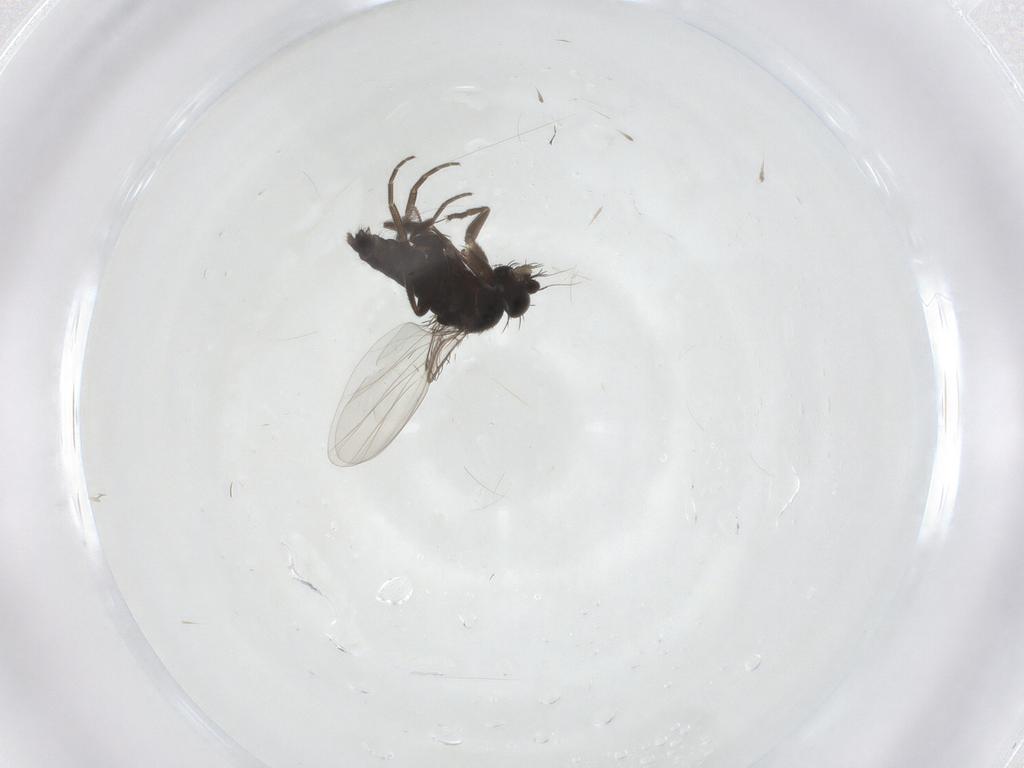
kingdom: Animalia
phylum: Arthropoda
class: Insecta
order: Diptera
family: Phoridae
